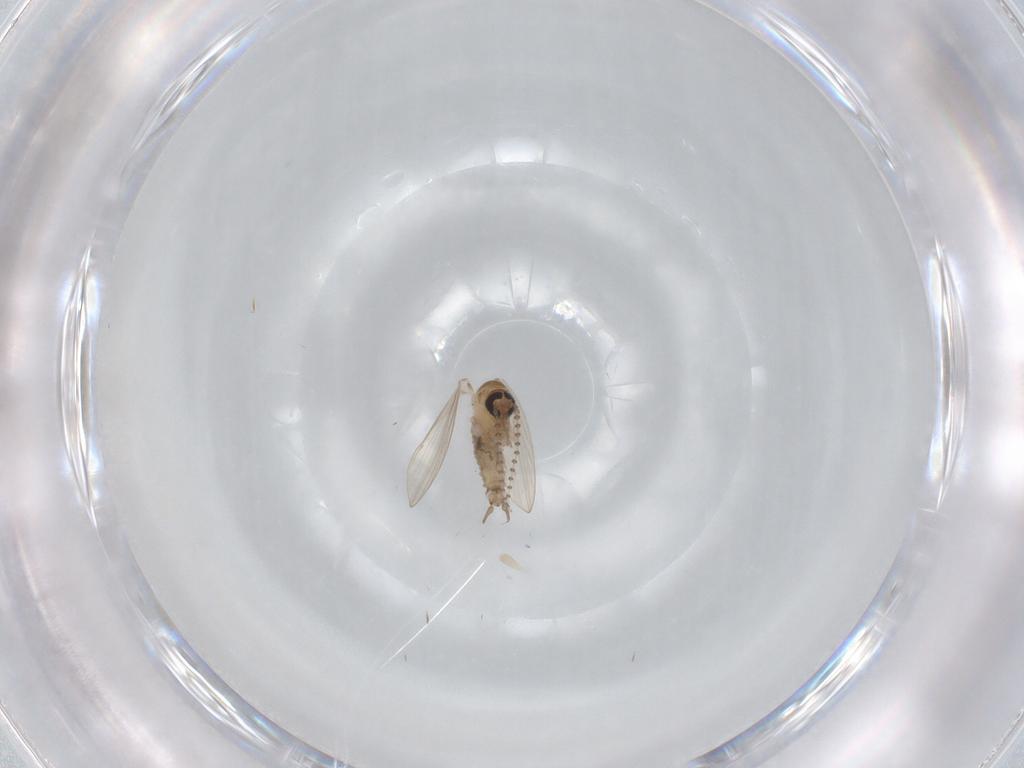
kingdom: Animalia
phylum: Arthropoda
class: Insecta
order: Diptera
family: Psychodidae
